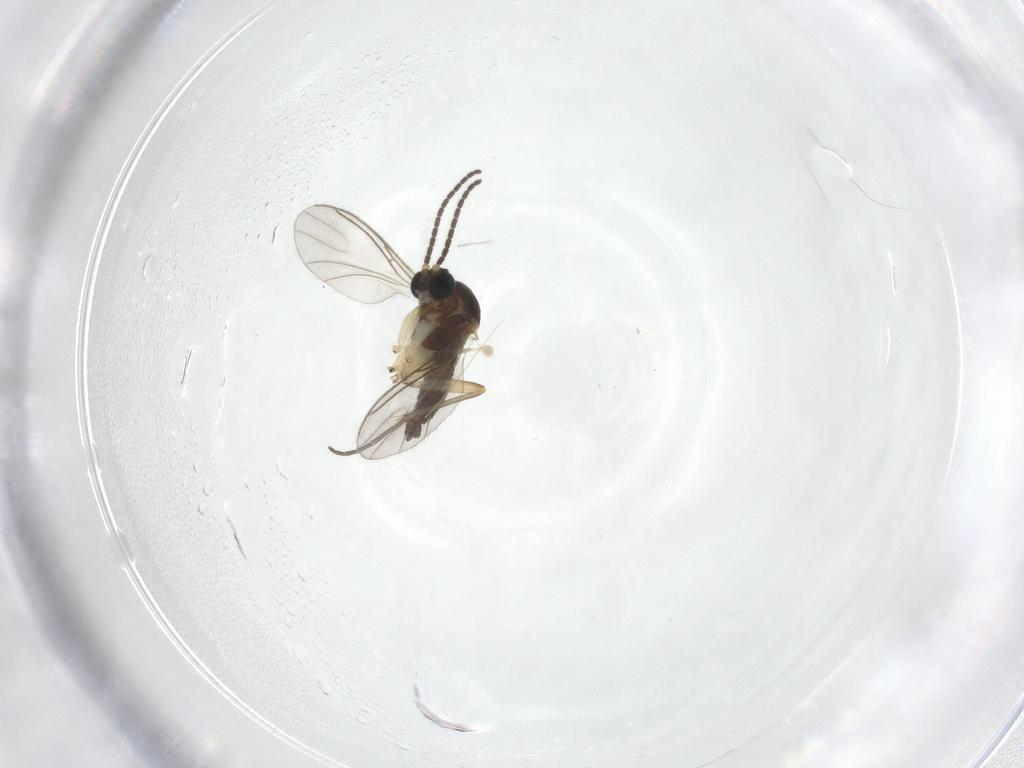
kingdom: Animalia
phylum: Arthropoda
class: Insecta
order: Diptera
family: Sciaridae
